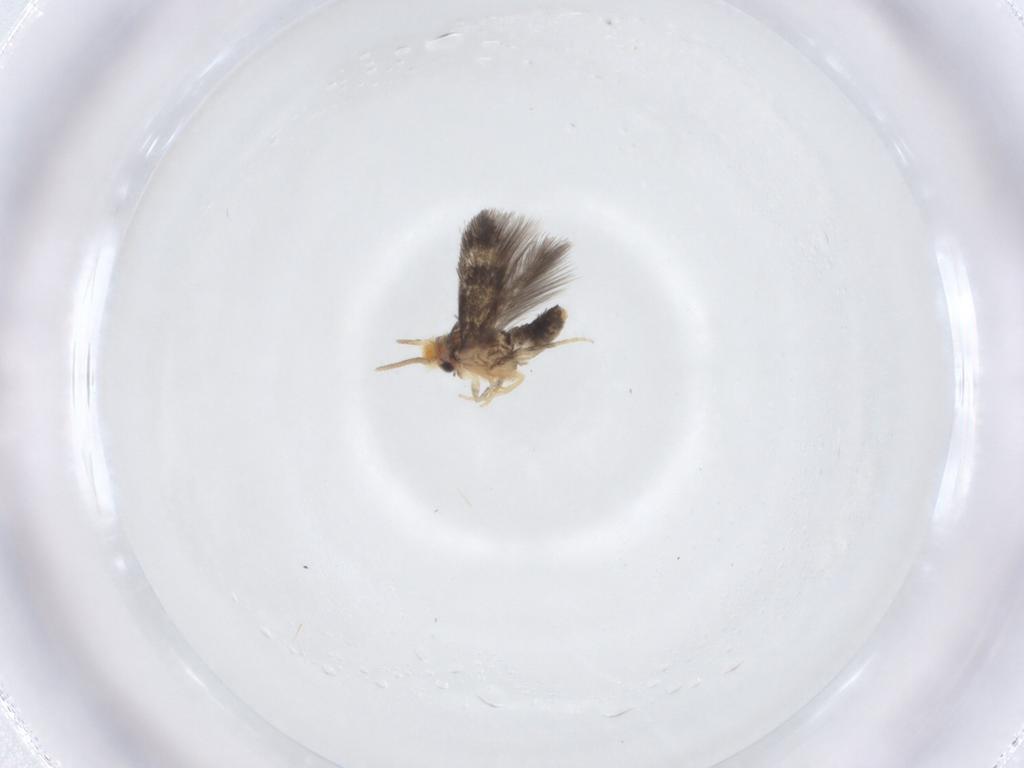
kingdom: Animalia
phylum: Arthropoda
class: Insecta
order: Lepidoptera
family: Nepticulidae
